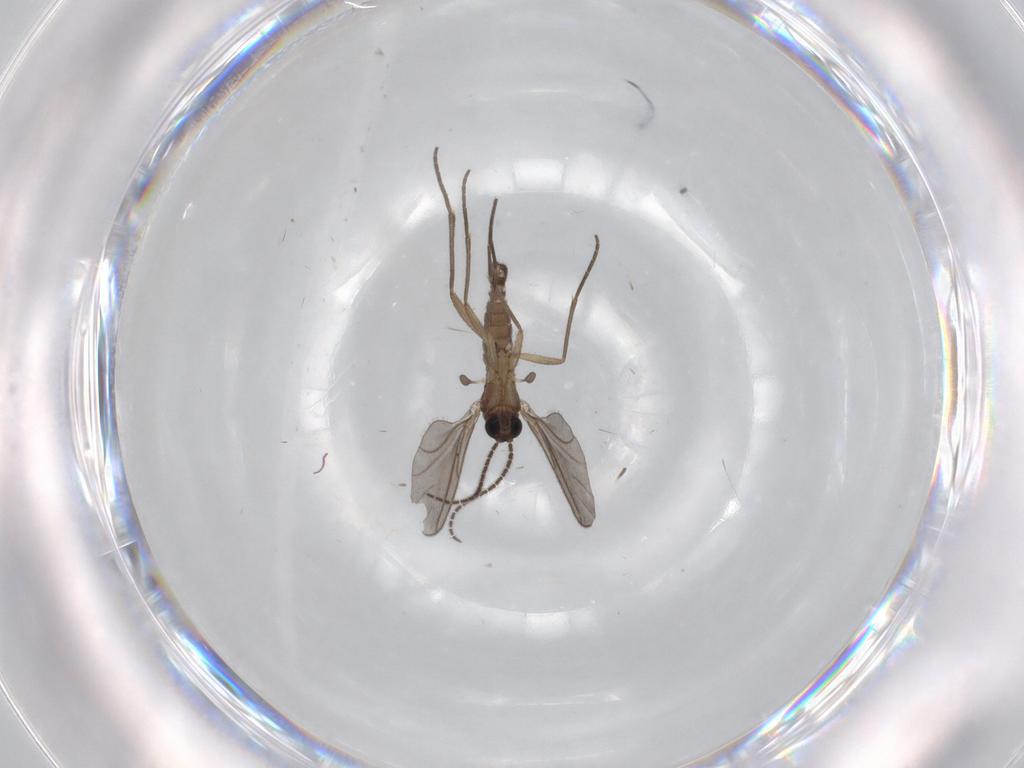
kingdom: Animalia
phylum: Arthropoda
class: Insecta
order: Diptera
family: Sciaridae
